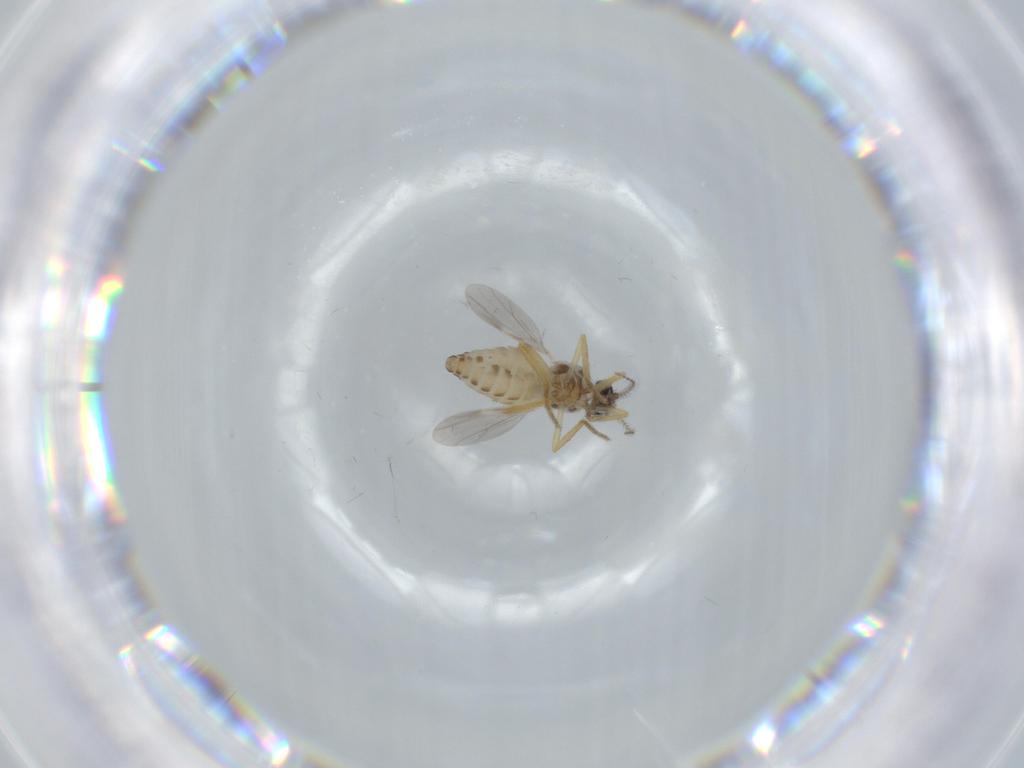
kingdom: Animalia
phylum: Arthropoda
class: Insecta
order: Diptera
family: Ceratopogonidae
